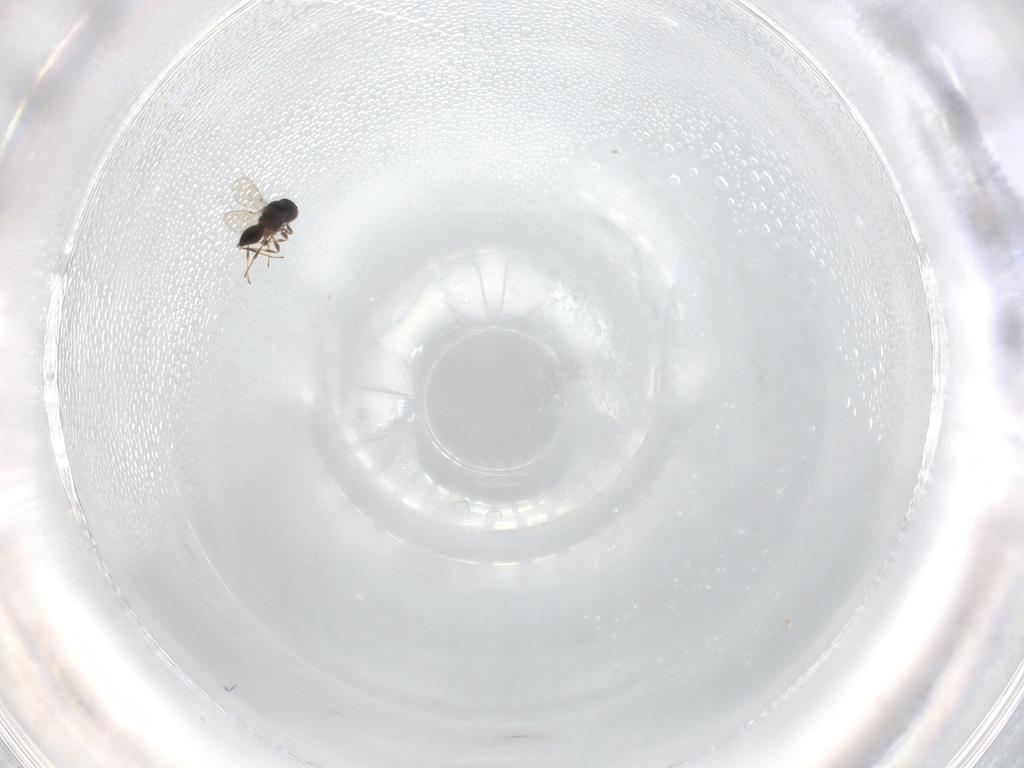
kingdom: Animalia
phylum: Arthropoda
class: Insecta
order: Hymenoptera
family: Platygastridae
